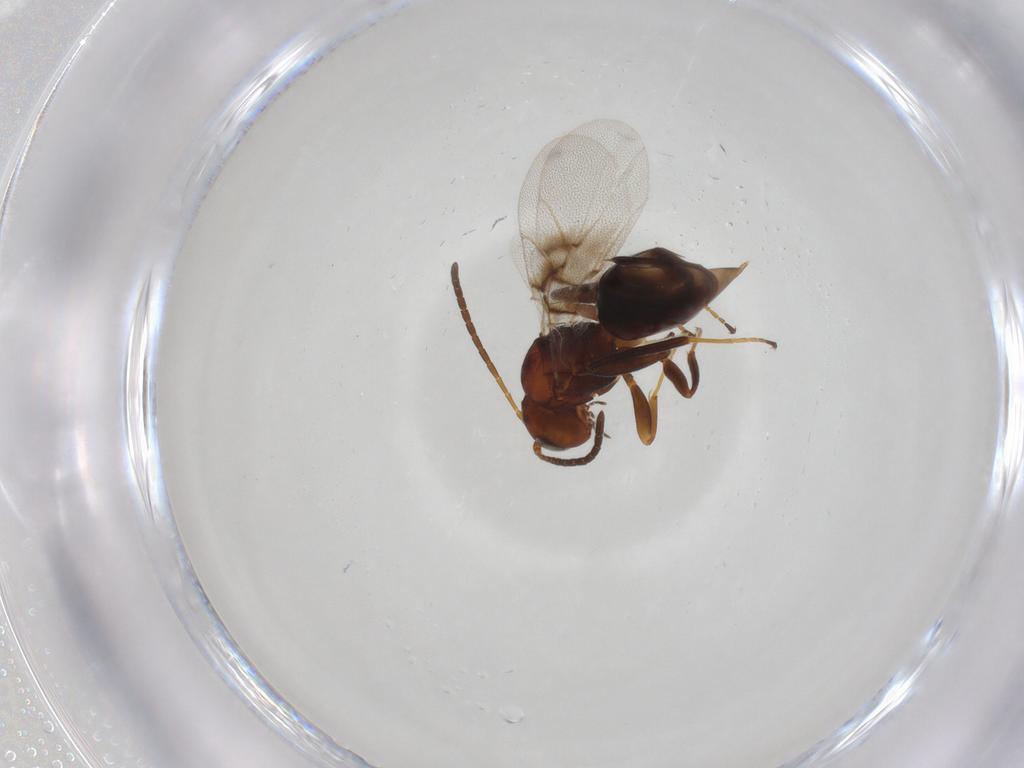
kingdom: Animalia
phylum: Arthropoda
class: Insecta
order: Hymenoptera
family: Cynipidae
